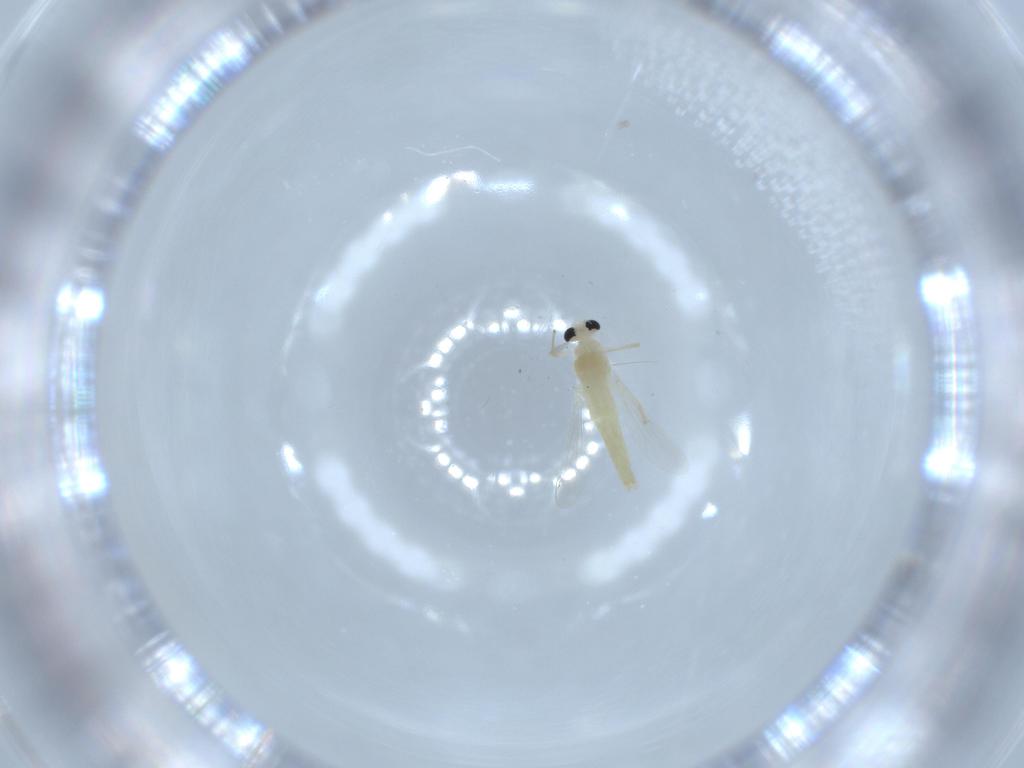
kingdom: Animalia
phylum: Arthropoda
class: Insecta
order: Diptera
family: Chironomidae
